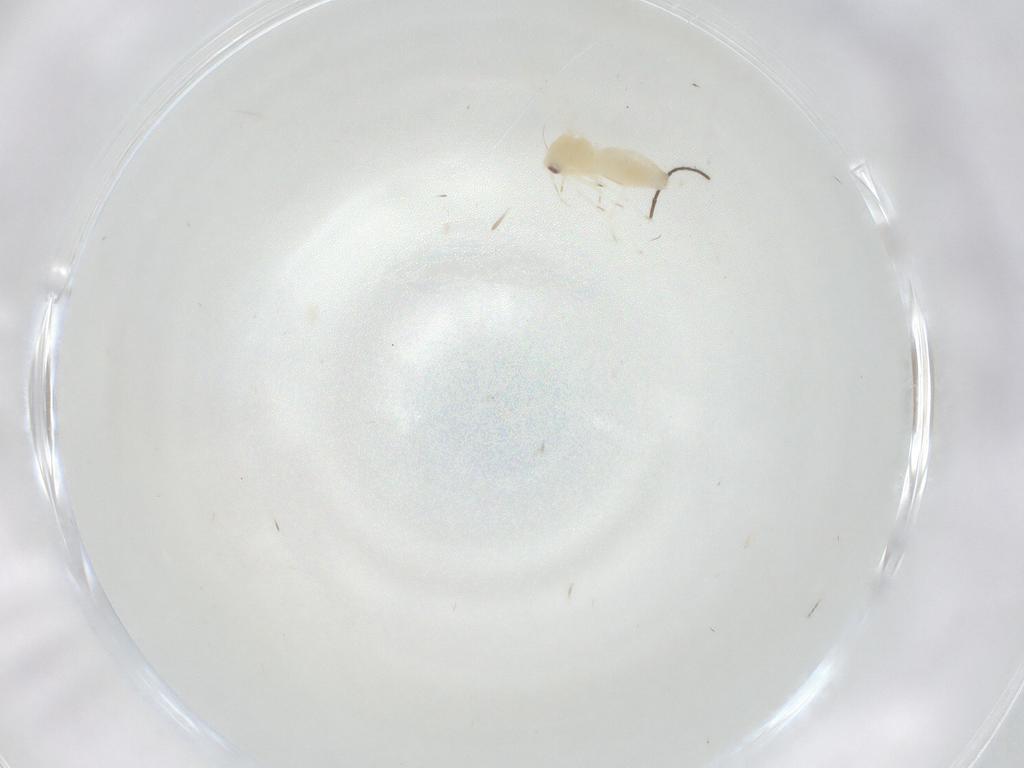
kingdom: Animalia
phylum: Arthropoda
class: Insecta
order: Hemiptera
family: Aleyrodidae
